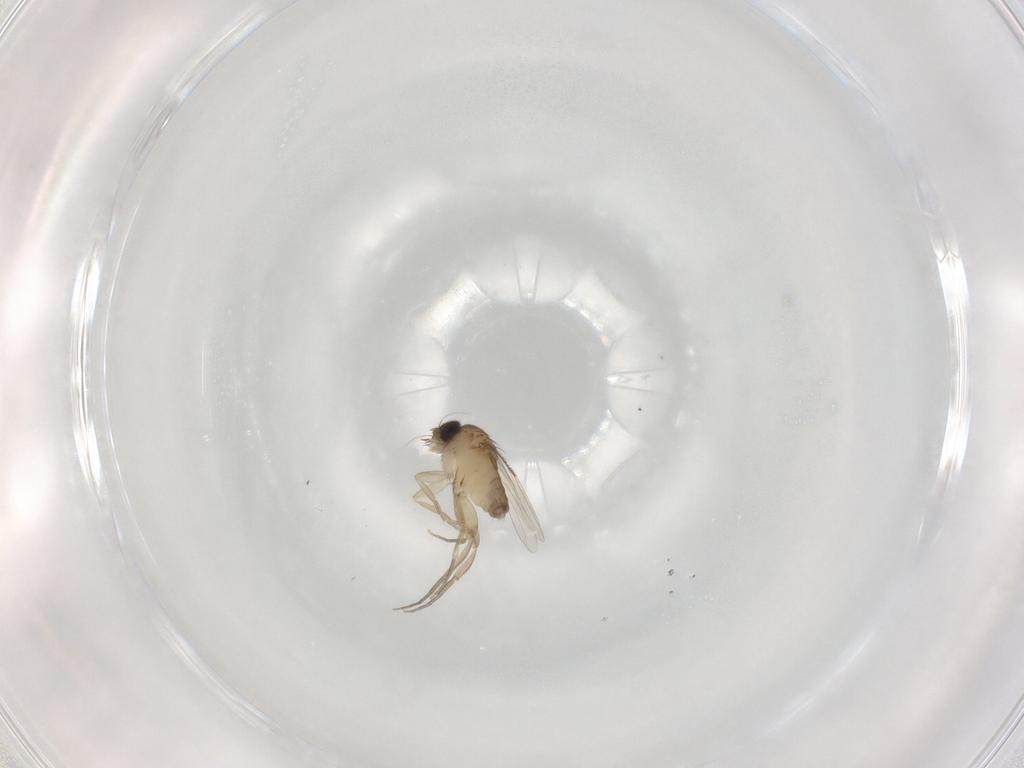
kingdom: Animalia
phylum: Arthropoda
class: Insecta
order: Diptera
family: Phoridae
